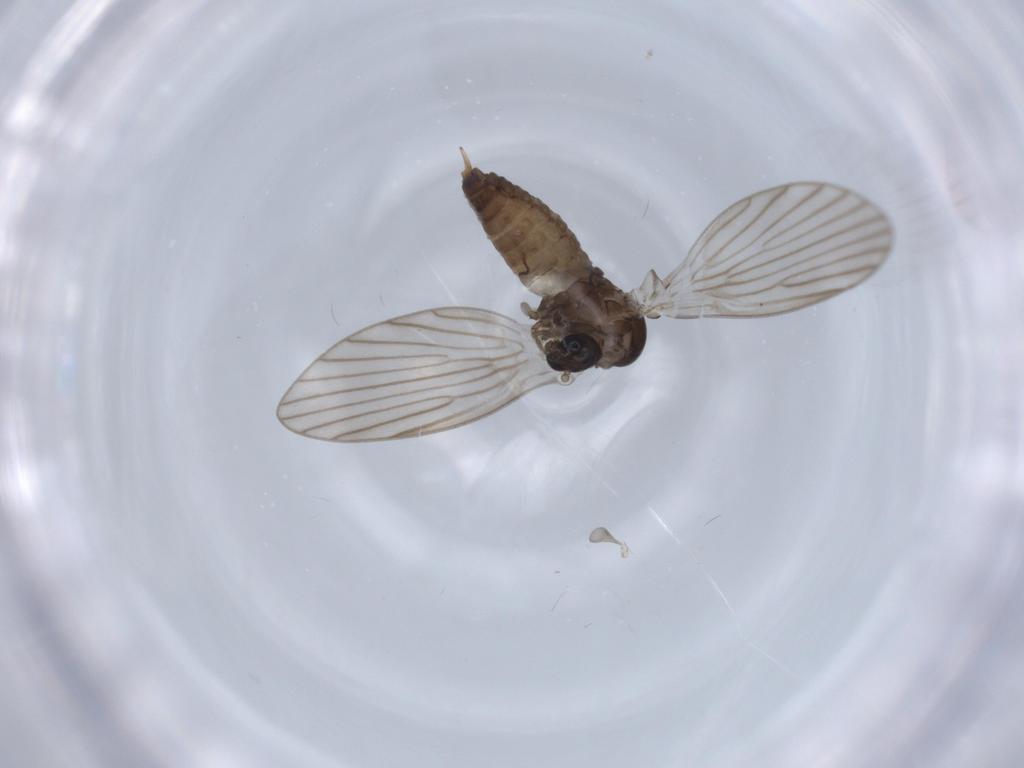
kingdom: Animalia
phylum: Arthropoda
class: Insecta
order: Diptera
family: Psychodidae
